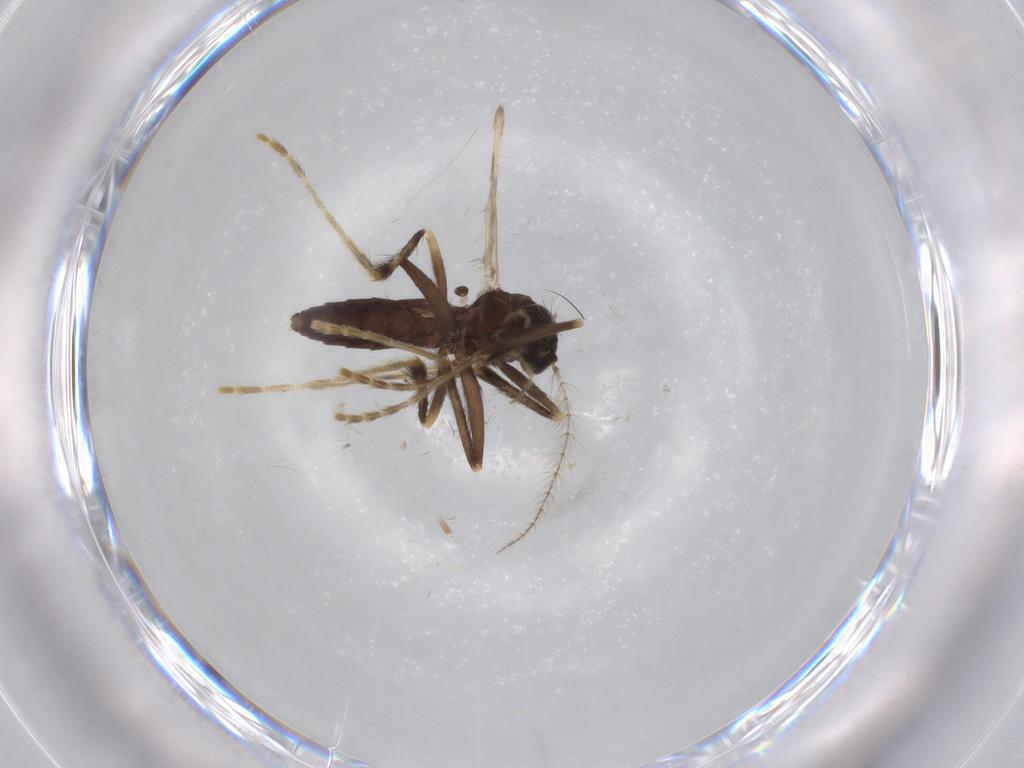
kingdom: Animalia
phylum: Arthropoda
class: Insecta
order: Diptera
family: Corethrellidae
